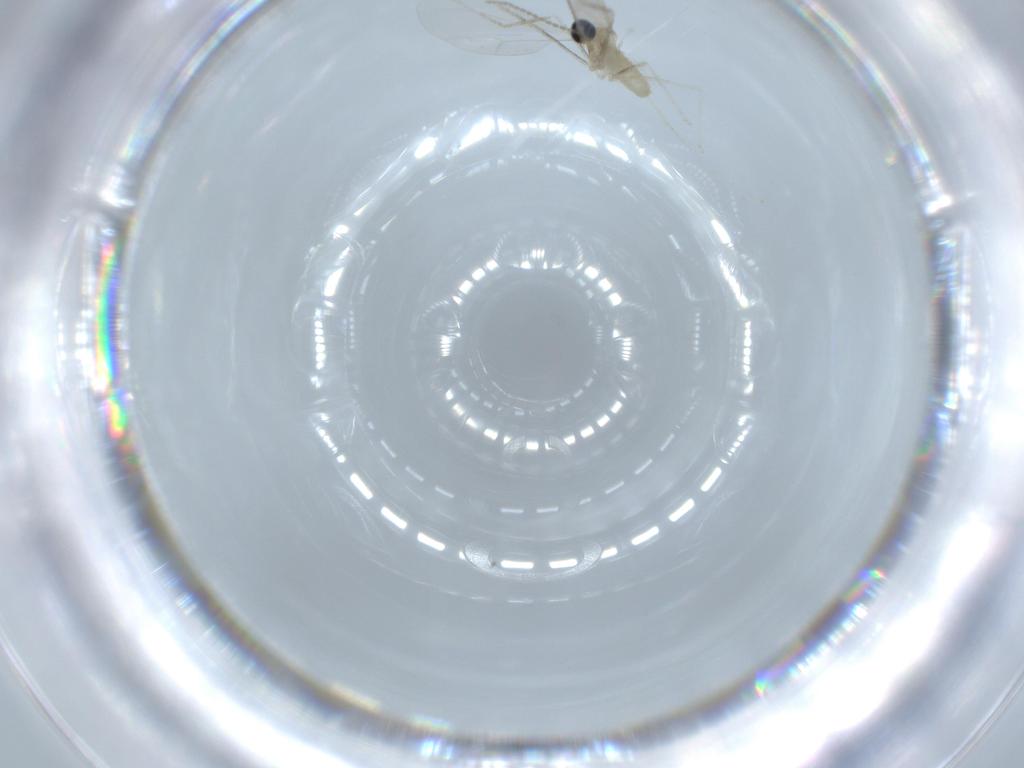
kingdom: Animalia
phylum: Arthropoda
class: Insecta
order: Diptera
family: Cecidomyiidae
